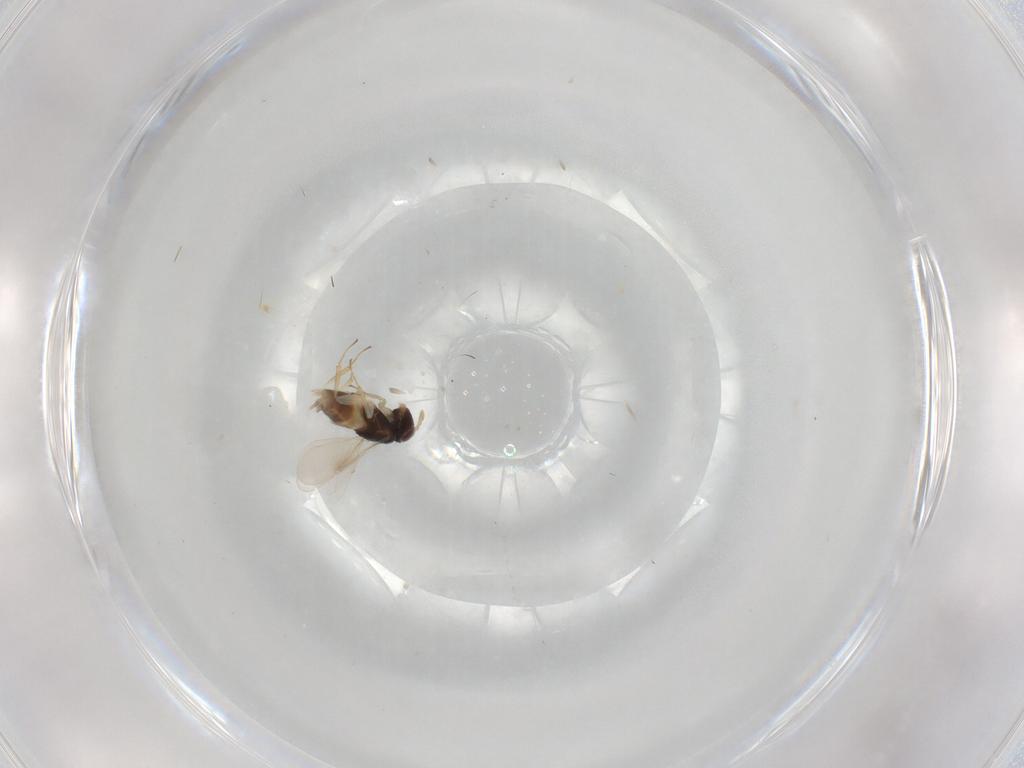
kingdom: Animalia
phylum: Arthropoda
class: Insecta
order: Hymenoptera
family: Aphelinidae
